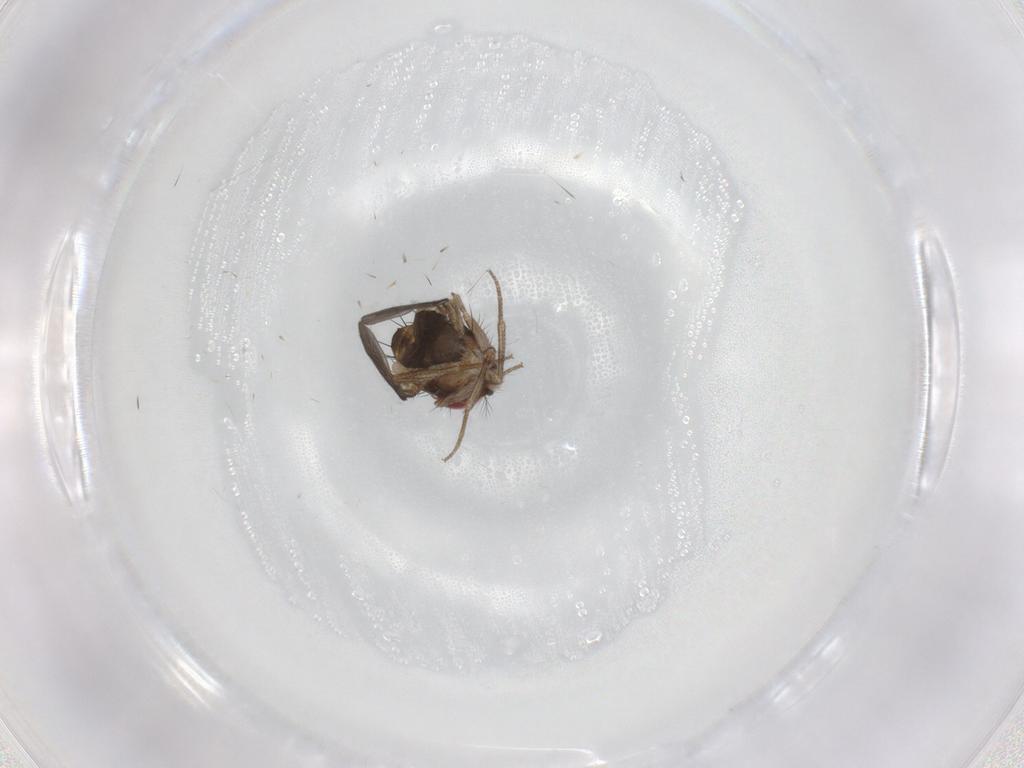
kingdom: Animalia
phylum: Arthropoda
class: Insecta
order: Diptera
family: Drosophilidae
